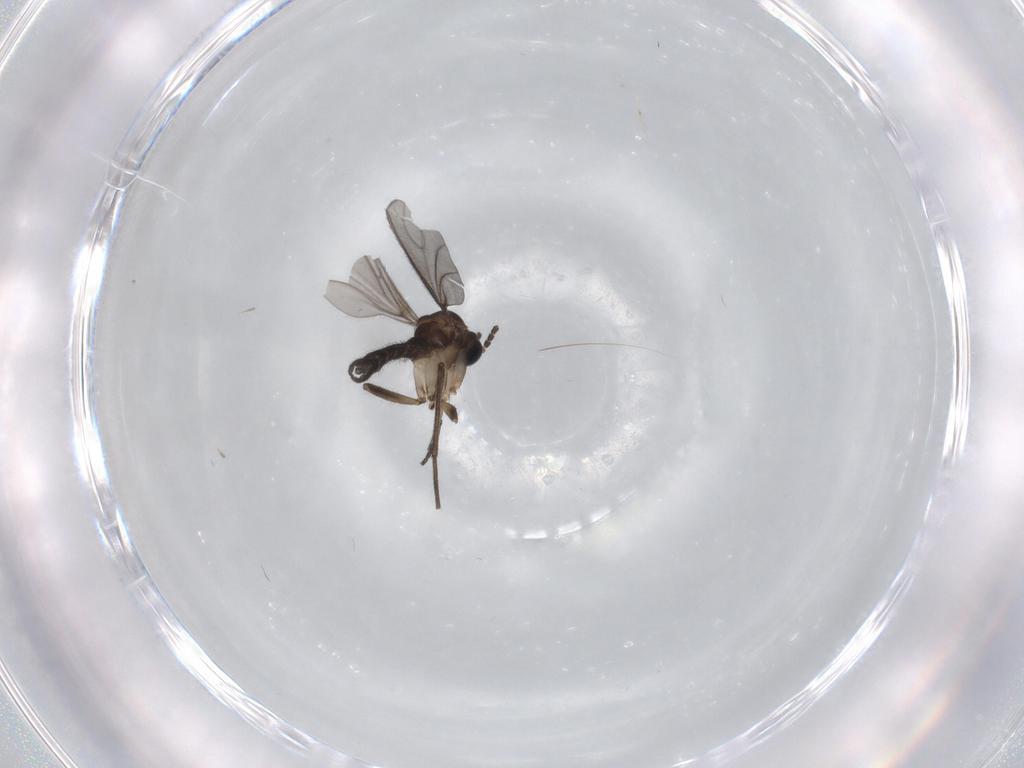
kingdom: Animalia
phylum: Arthropoda
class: Insecta
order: Diptera
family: Sciaridae
